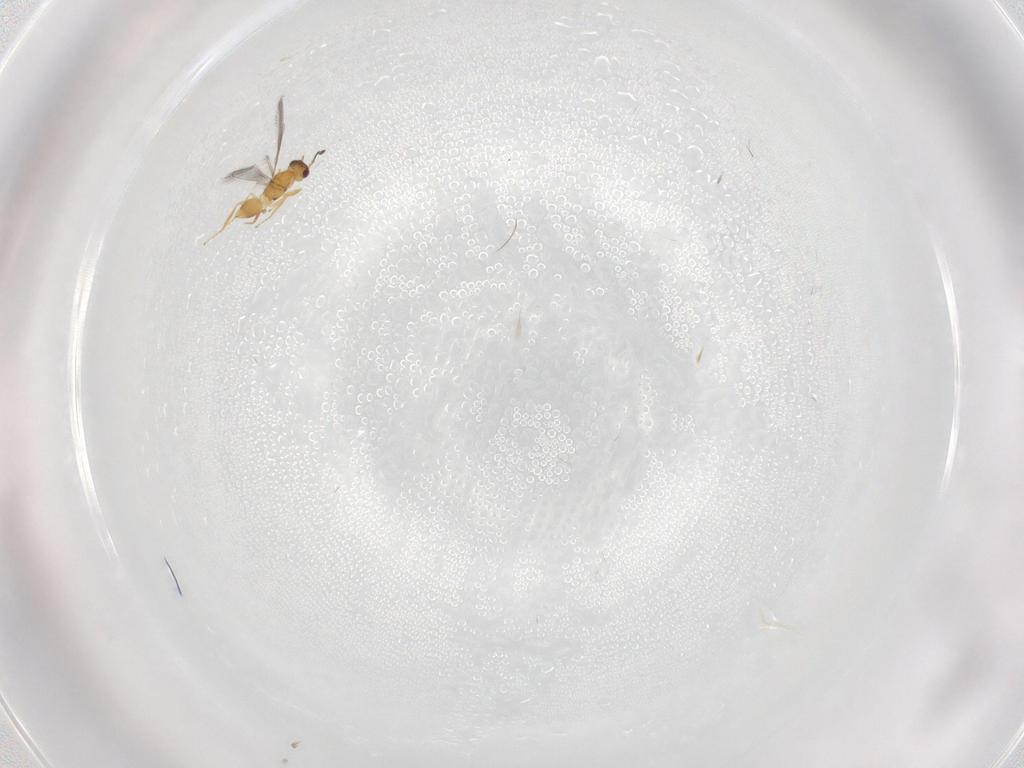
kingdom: Animalia
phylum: Arthropoda
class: Insecta
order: Hymenoptera
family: Mymaridae
